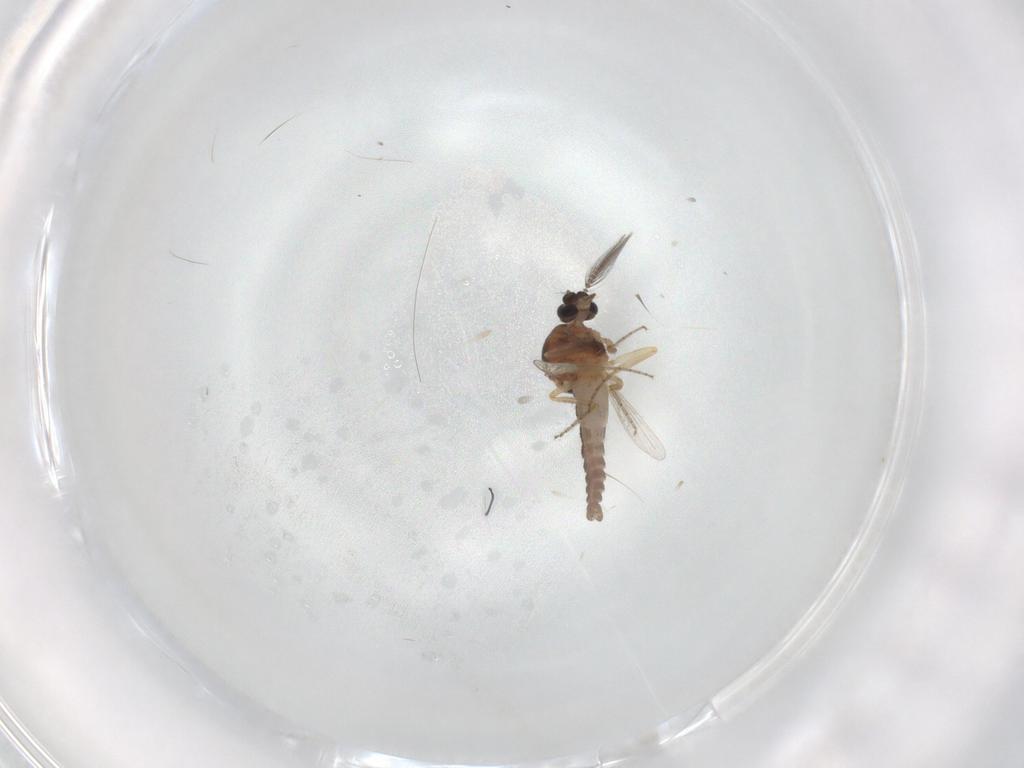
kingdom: Animalia
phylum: Arthropoda
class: Insecta
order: Diptera
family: Ceratopogonidae
